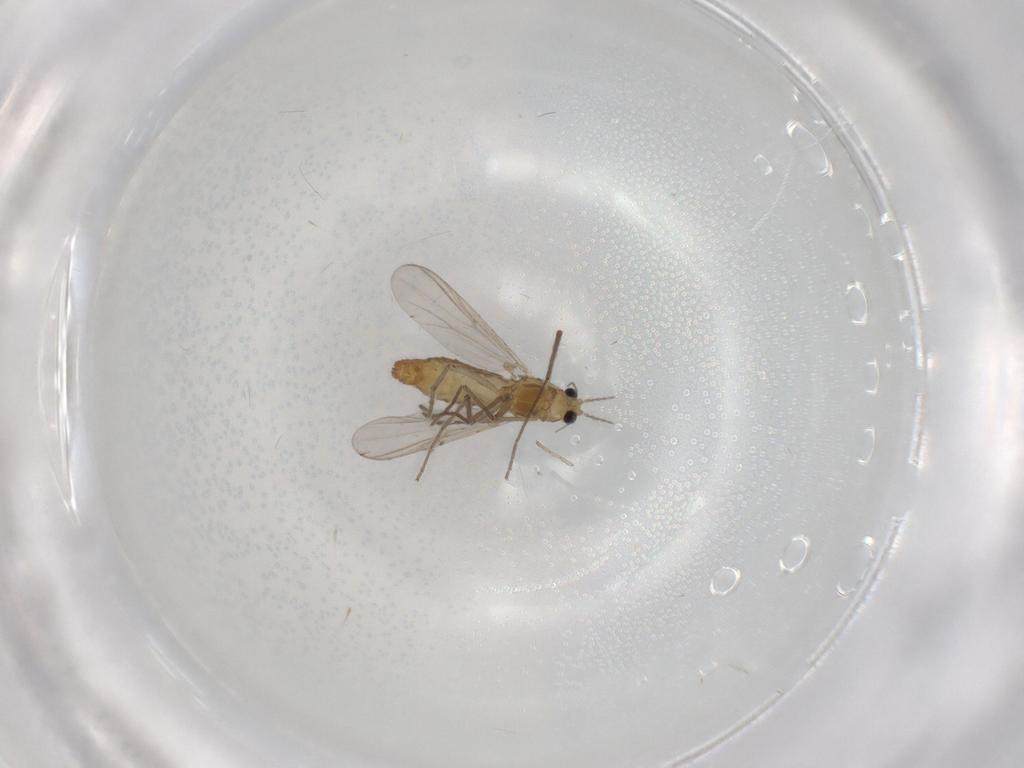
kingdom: Animalia
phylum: Arthropoda
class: Insecta
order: Diptera
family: Chironomidae
